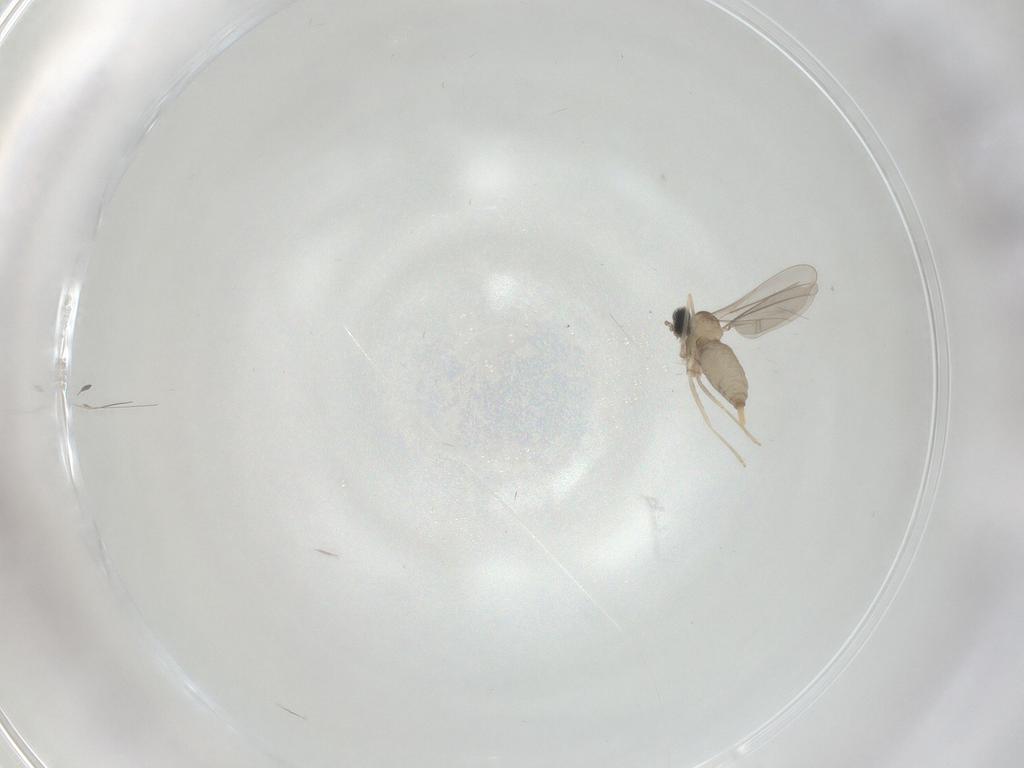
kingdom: Animalia
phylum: Arthropoda
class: Insecta
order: Diptera
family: Cecidomyiidae
